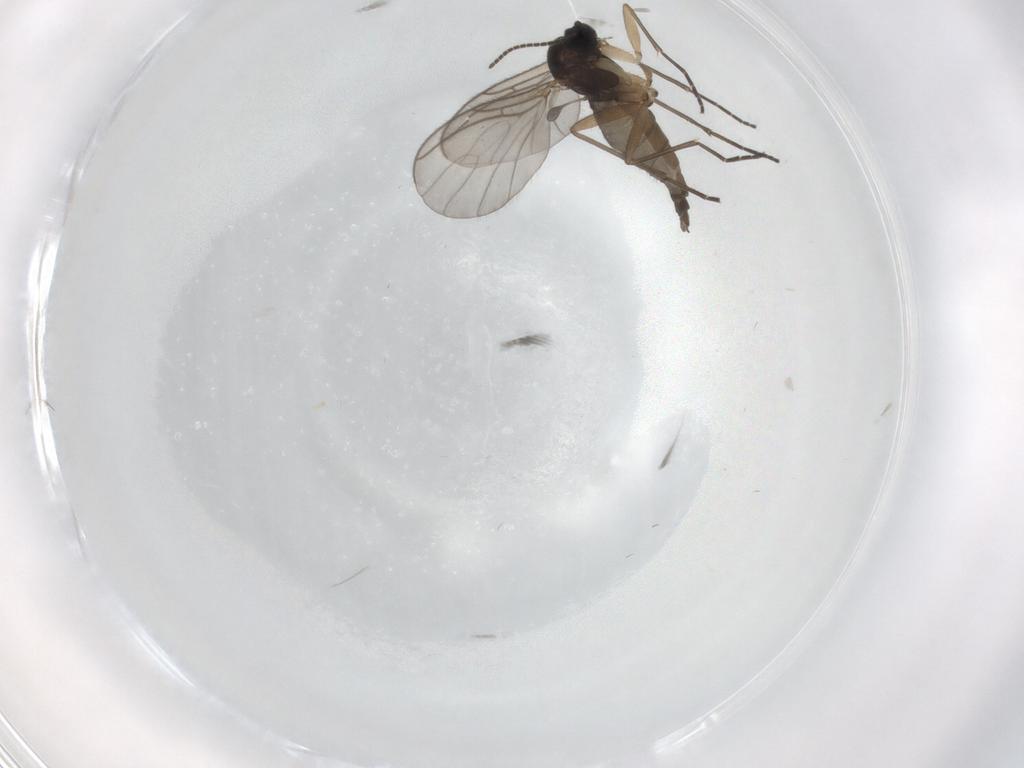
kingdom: Animalia
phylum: Arthropoda
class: Insecta
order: Diptera
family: Sciaridae
